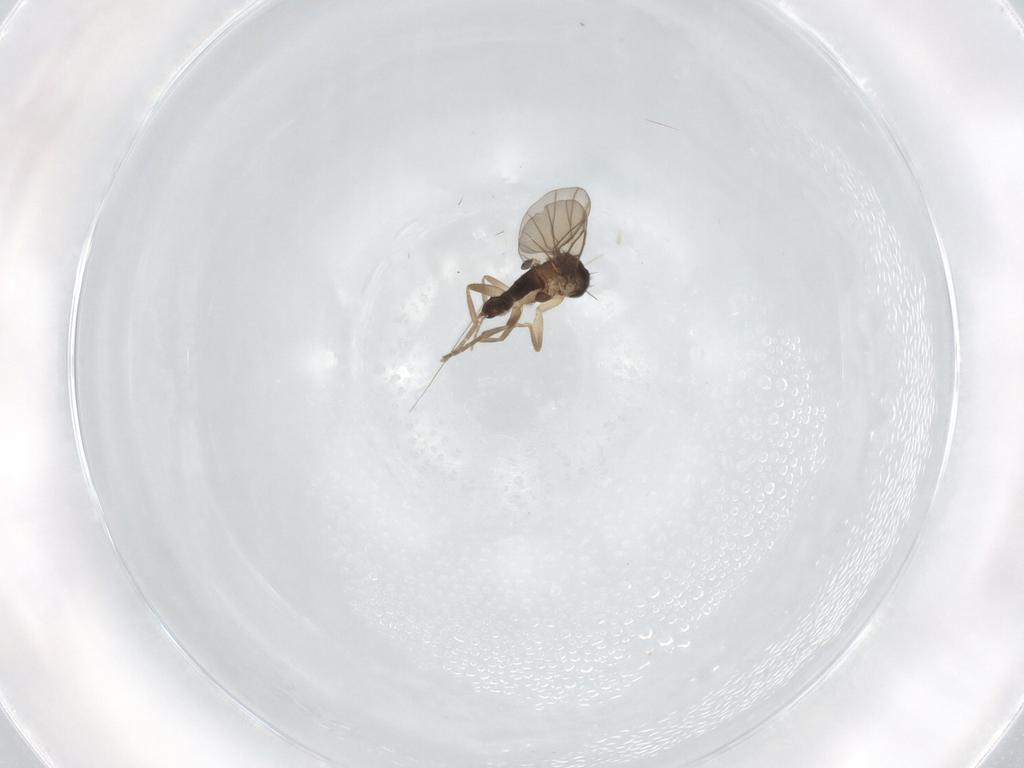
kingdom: Animalia
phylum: Arthropoda
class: Insecta
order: Diptera
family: Phoridae
